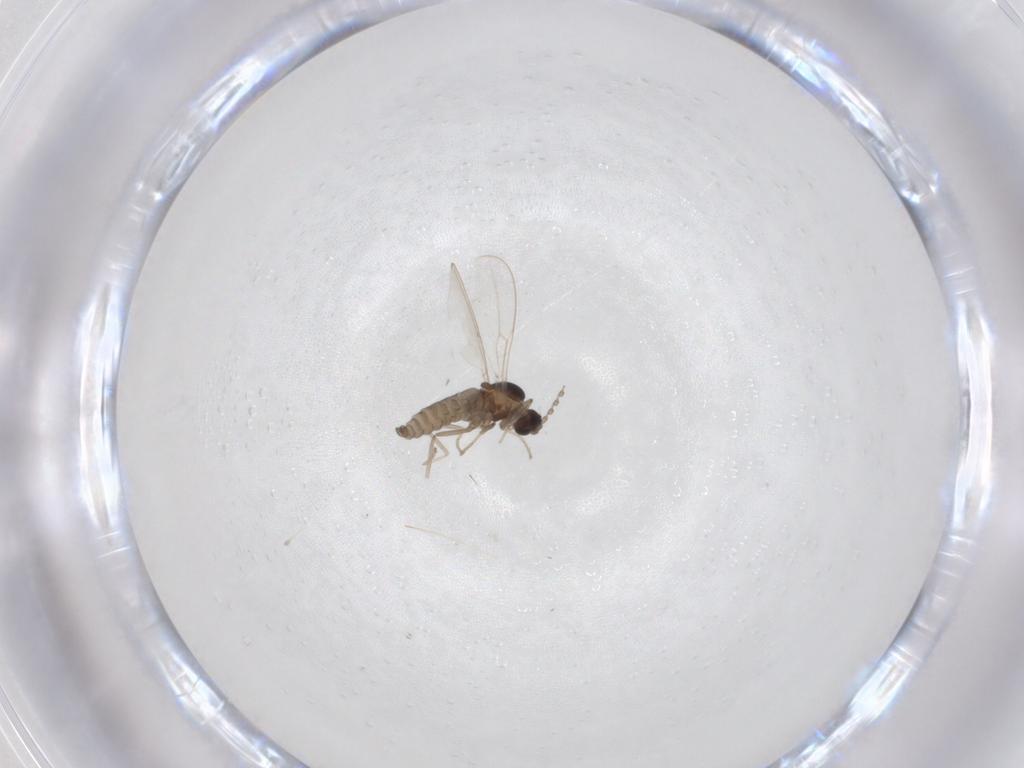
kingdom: Animalia
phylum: Arthropoda
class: Insecta
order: Diptera
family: Cecidomyiidae
